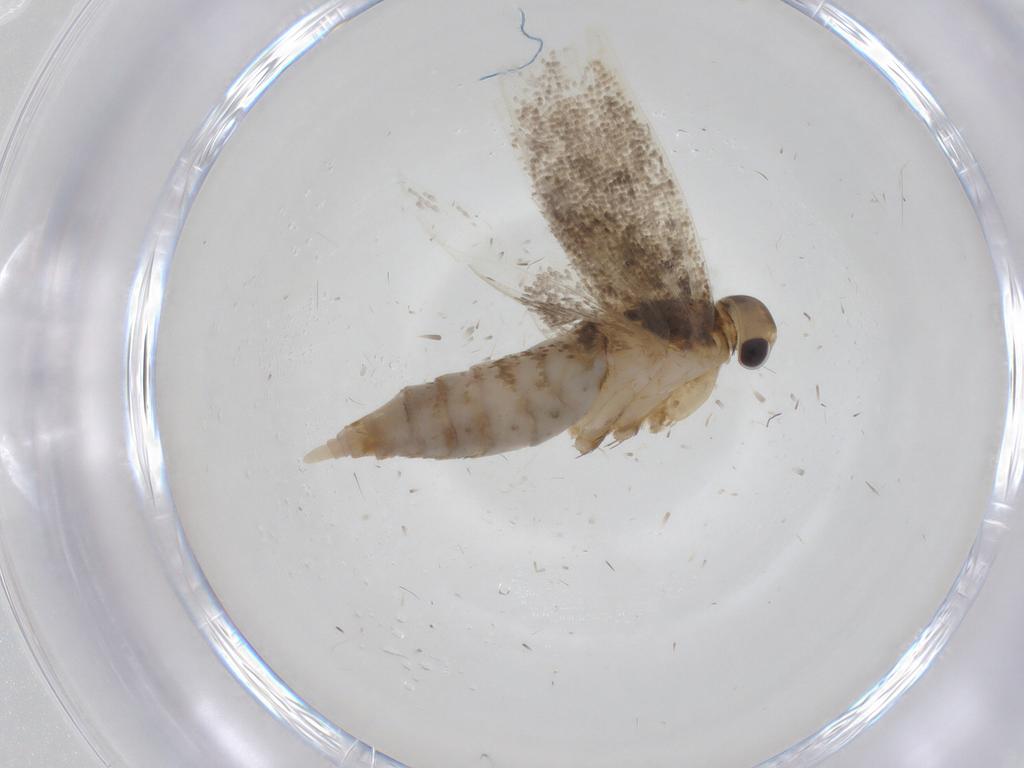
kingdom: Animalia
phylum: Arthropoda
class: Insecta
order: Lepidoptera
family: Lecithoceridae
